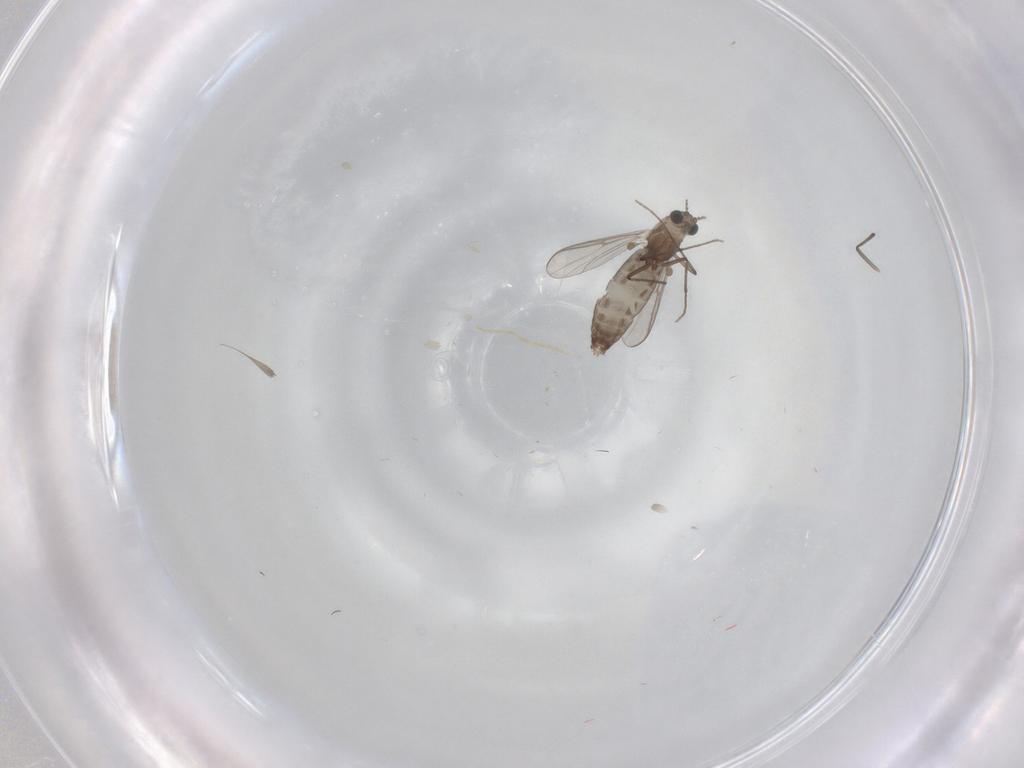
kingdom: Animalia
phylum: Arthropoda
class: Insecta
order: Diptera
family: Chironomidae
